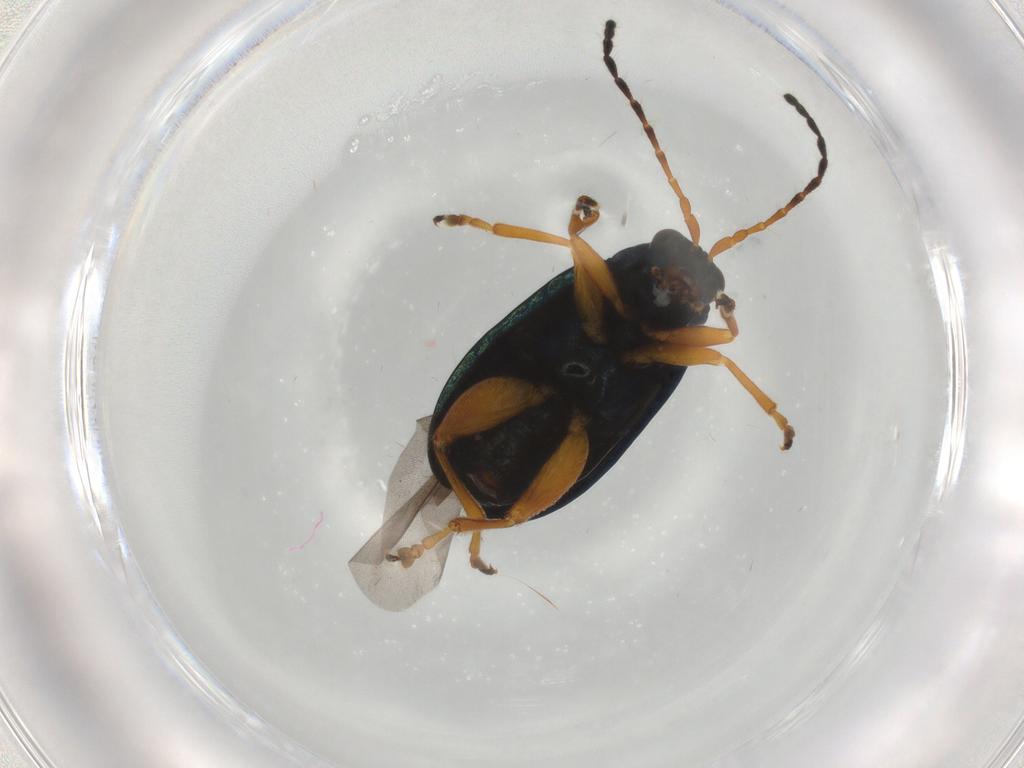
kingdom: Animalia
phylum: Arthropoda
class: Insecta
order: Coleoptera
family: Chrysomelidae
